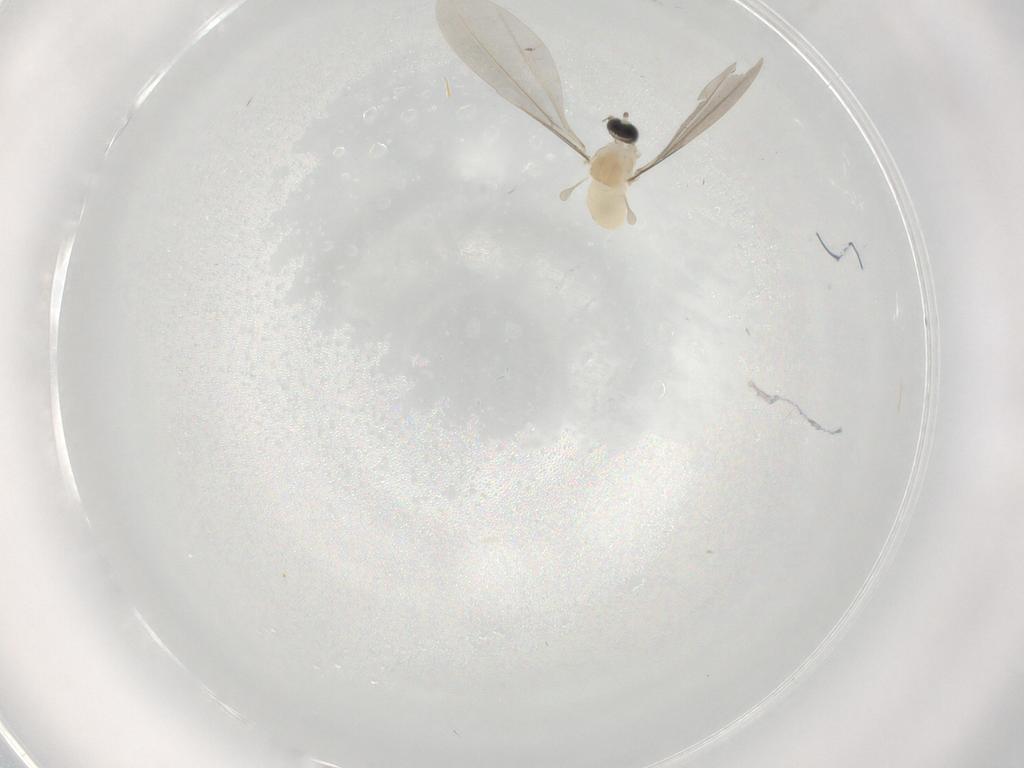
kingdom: Animalia
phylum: Arthropoda
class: Insecta
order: Diptera
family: Cecidomyiidae
